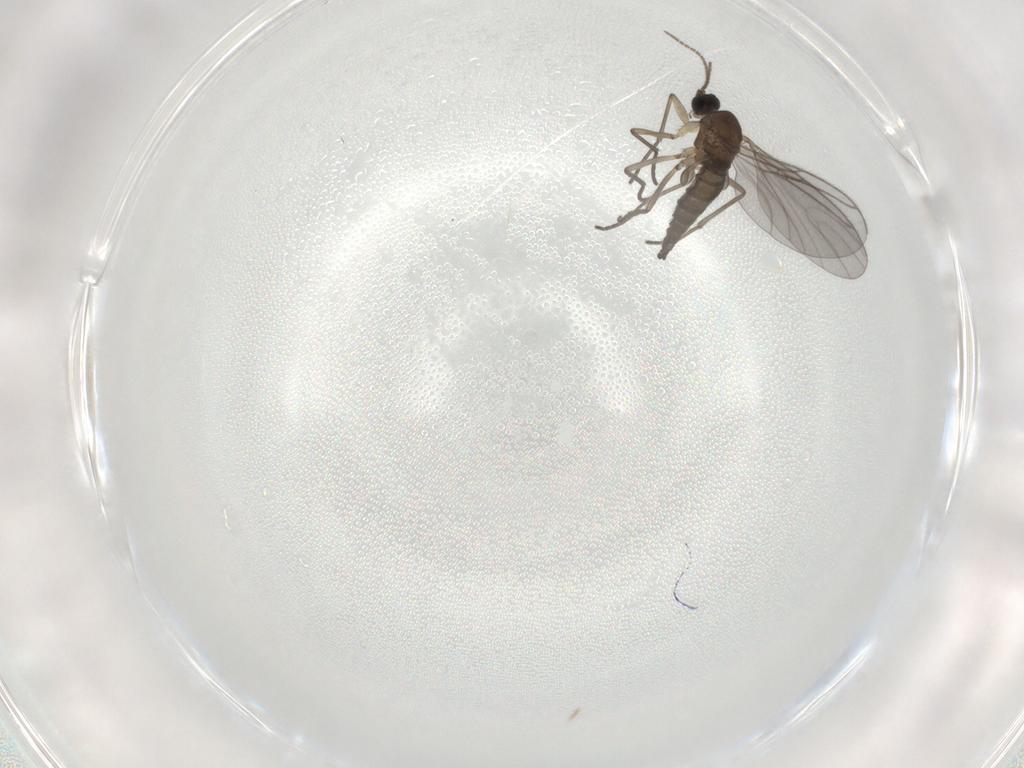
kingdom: Animalia
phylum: Arthropoda
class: Insecta
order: Diptera
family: Sciaridae
